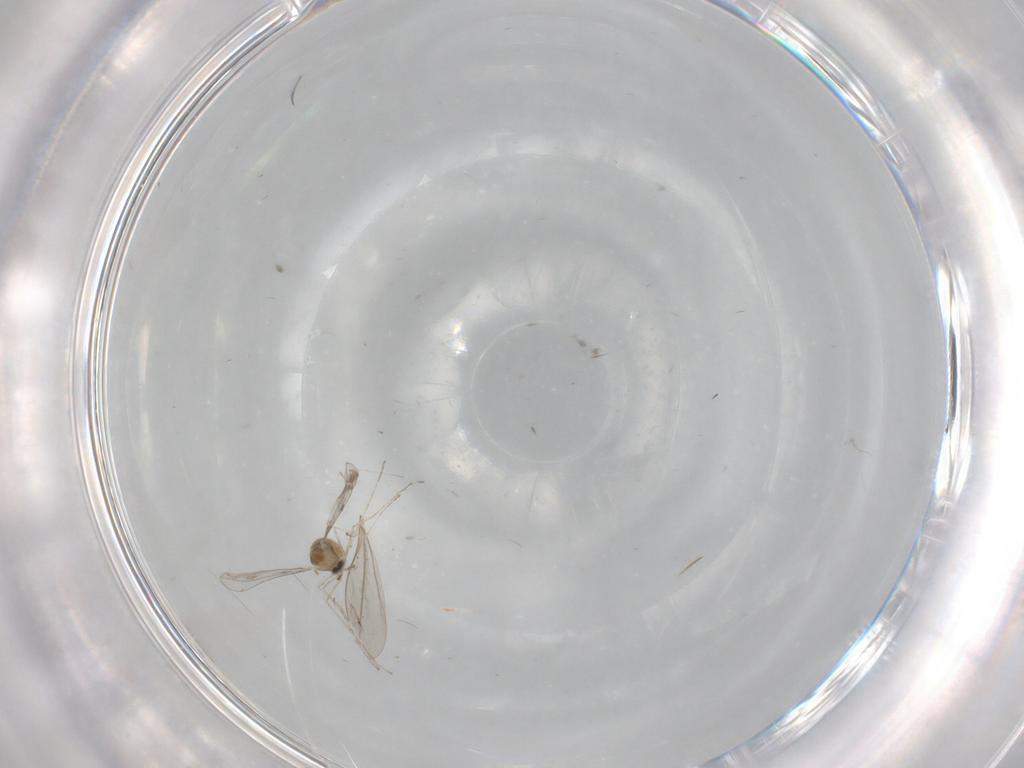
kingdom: Animalia
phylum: Arthropoda
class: Insecta
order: Diptera
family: Cecidomyiidae
